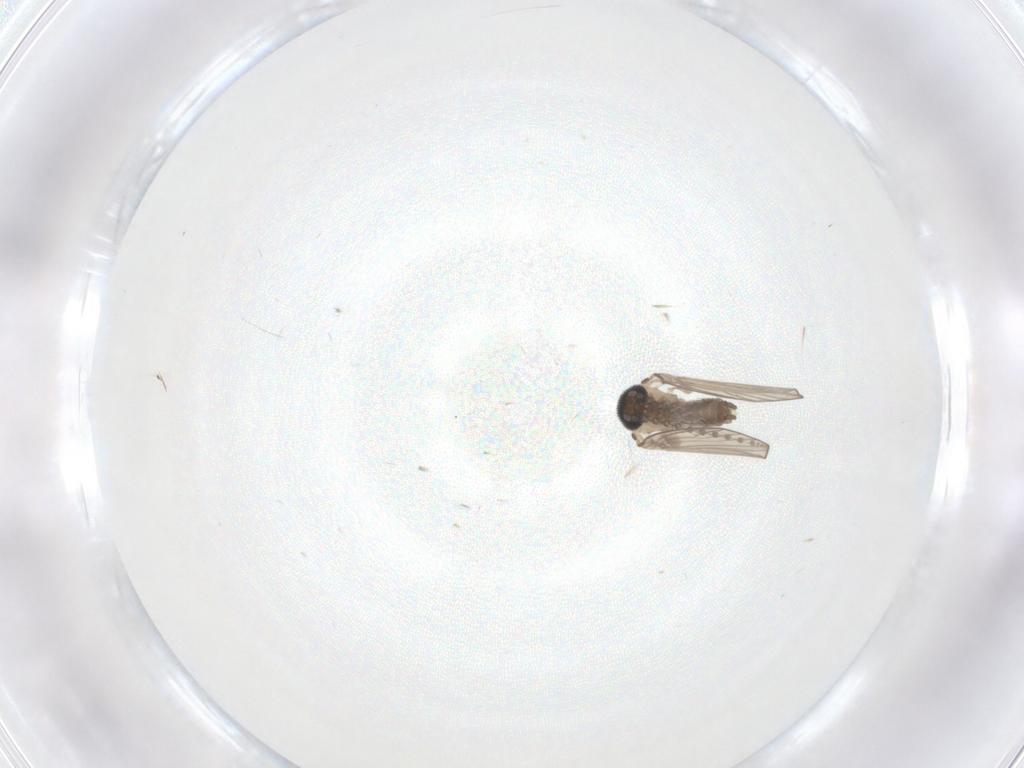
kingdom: Animalia
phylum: Arthropoda
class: Insecta
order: Diptera
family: Psychodidae
